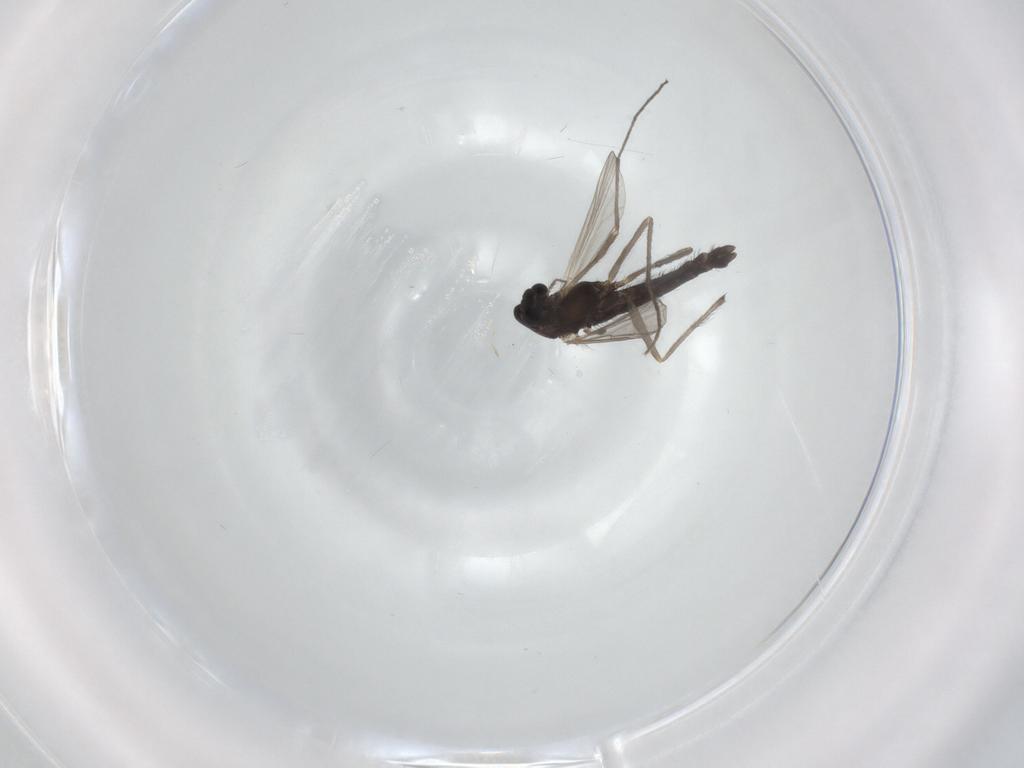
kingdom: Animalia
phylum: Arthropoda
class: Insecta
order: Diptera
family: Chironomidae
